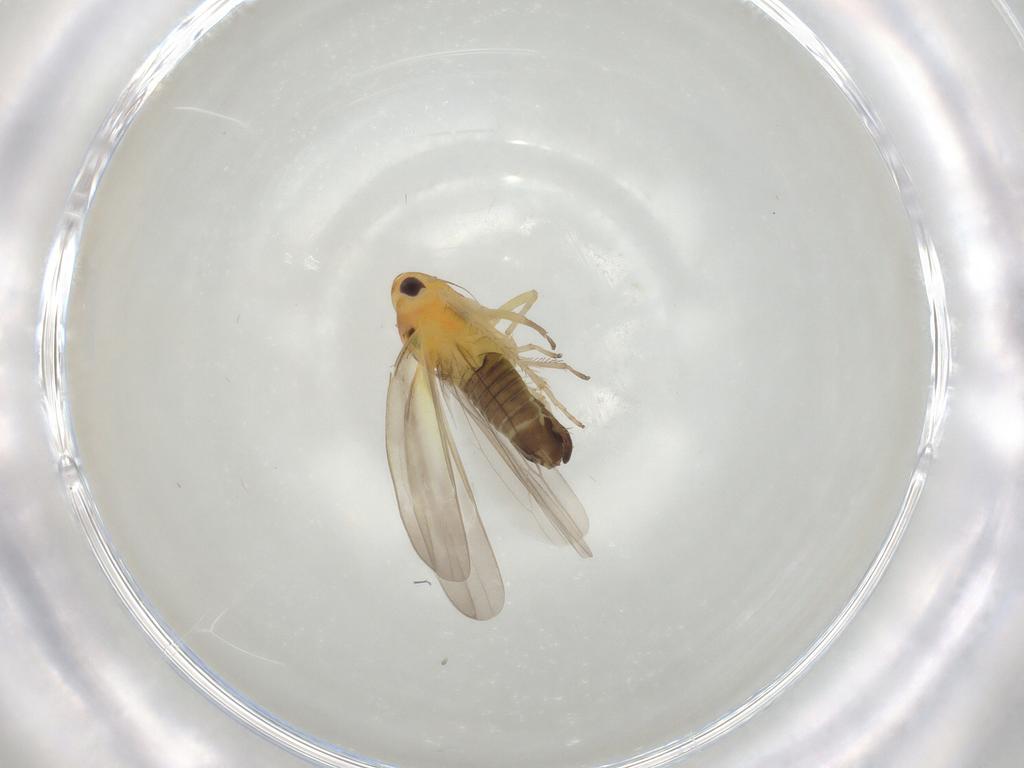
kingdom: Animalia
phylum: Arthropoda
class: Insecta
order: Hemiptera
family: Cicadellidae
